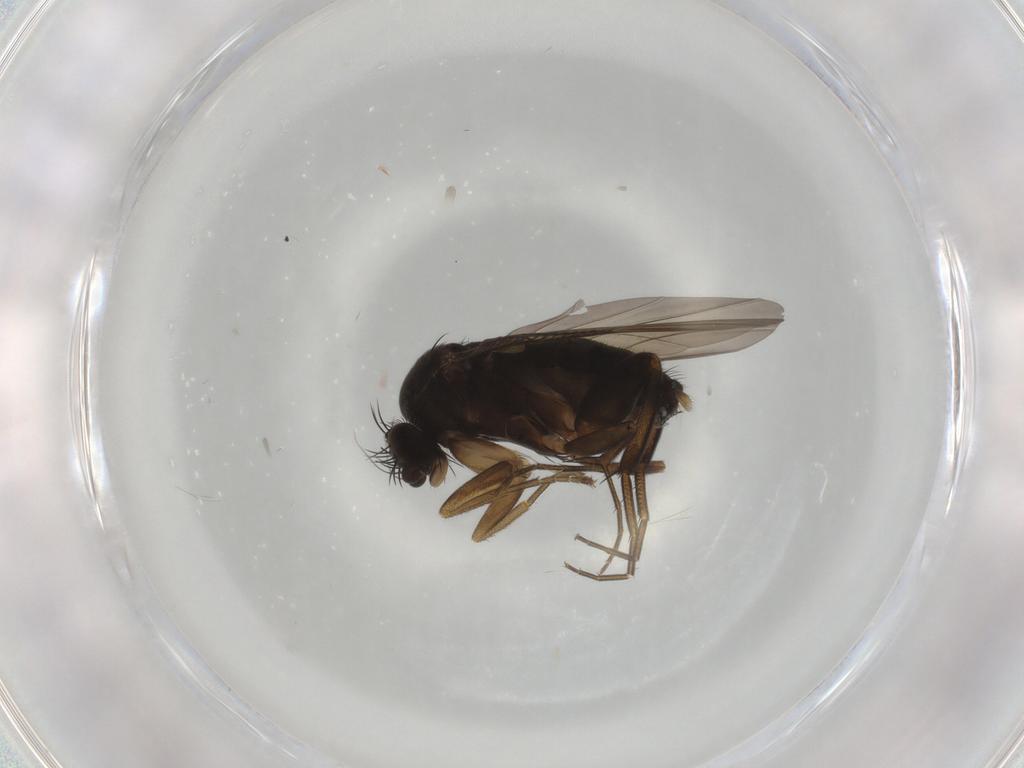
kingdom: Animalia
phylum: Arthropoda
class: Insecta
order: Diptera
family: Phoridae
